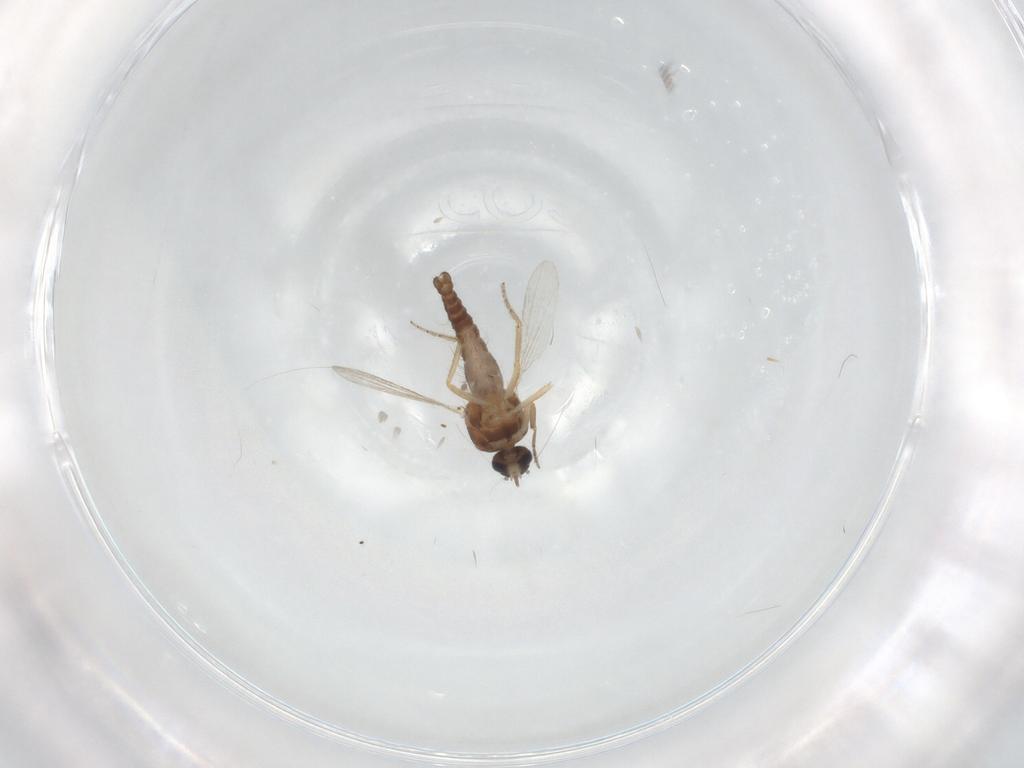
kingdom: Animalia
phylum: Arthropoda
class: Insecta
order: Diptera
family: Ceratopogonidae
